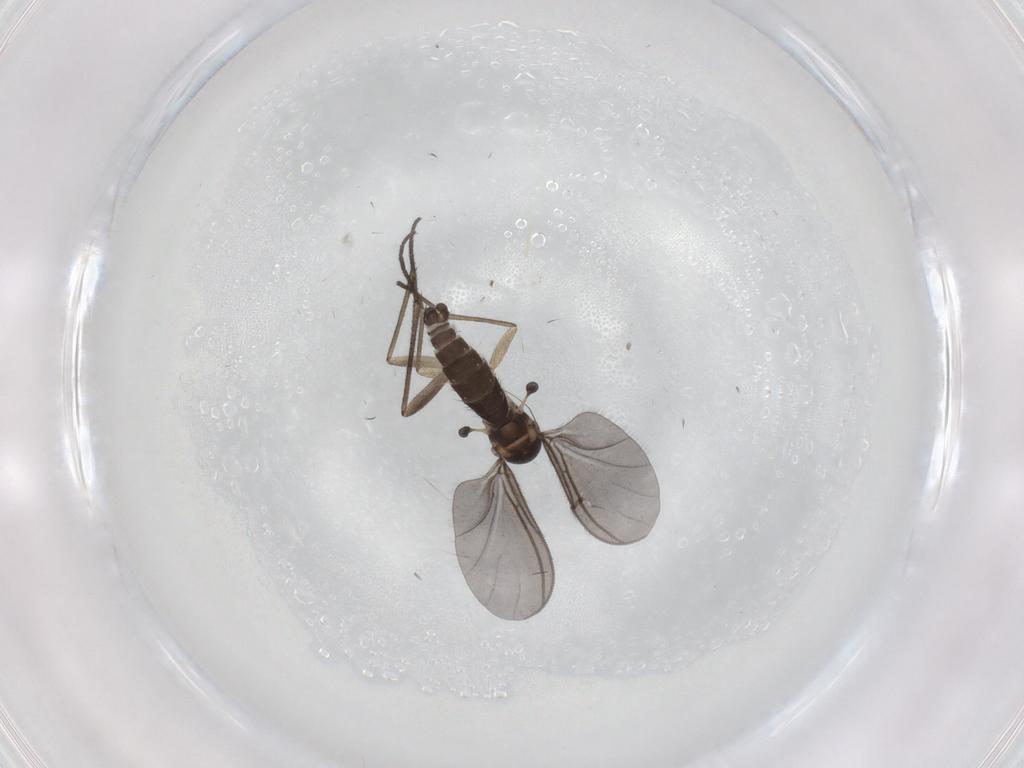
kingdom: Animalia
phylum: Arthropoda
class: Insecta
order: Diptera
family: Sciaridae
